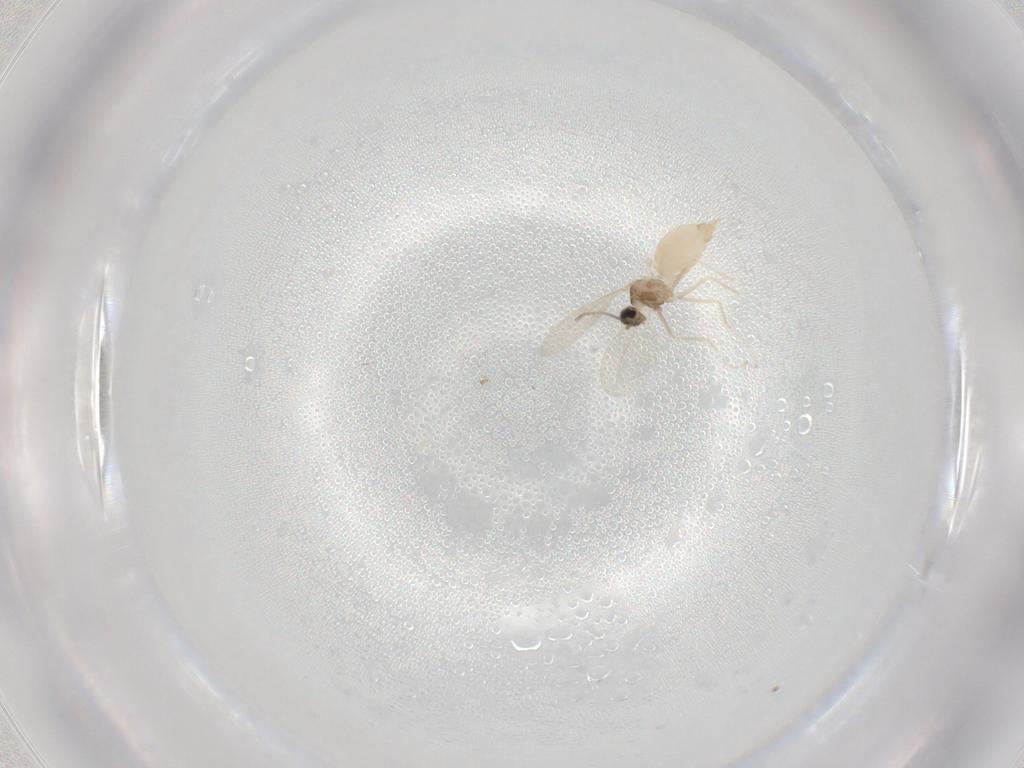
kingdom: Animalia
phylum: Arthropoda
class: Insecta
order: Diptera
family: Cecidomyiidae
